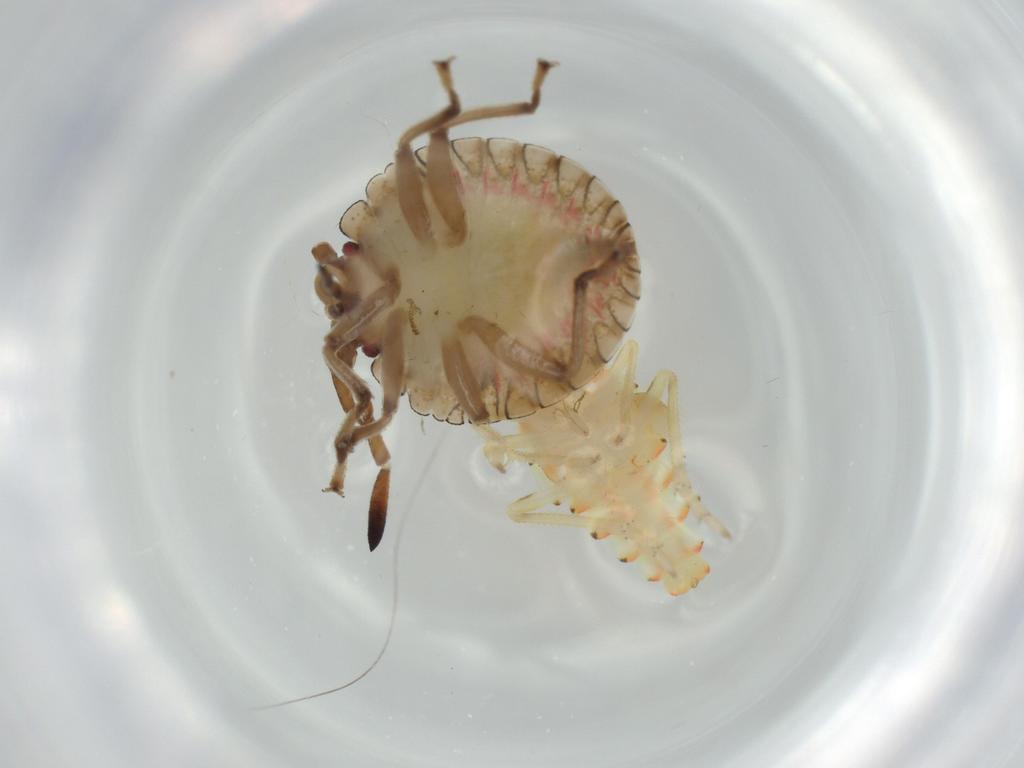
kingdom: Animalia
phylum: Arthropoda
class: Insecta
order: Hemiptera
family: Tropiduchidae
